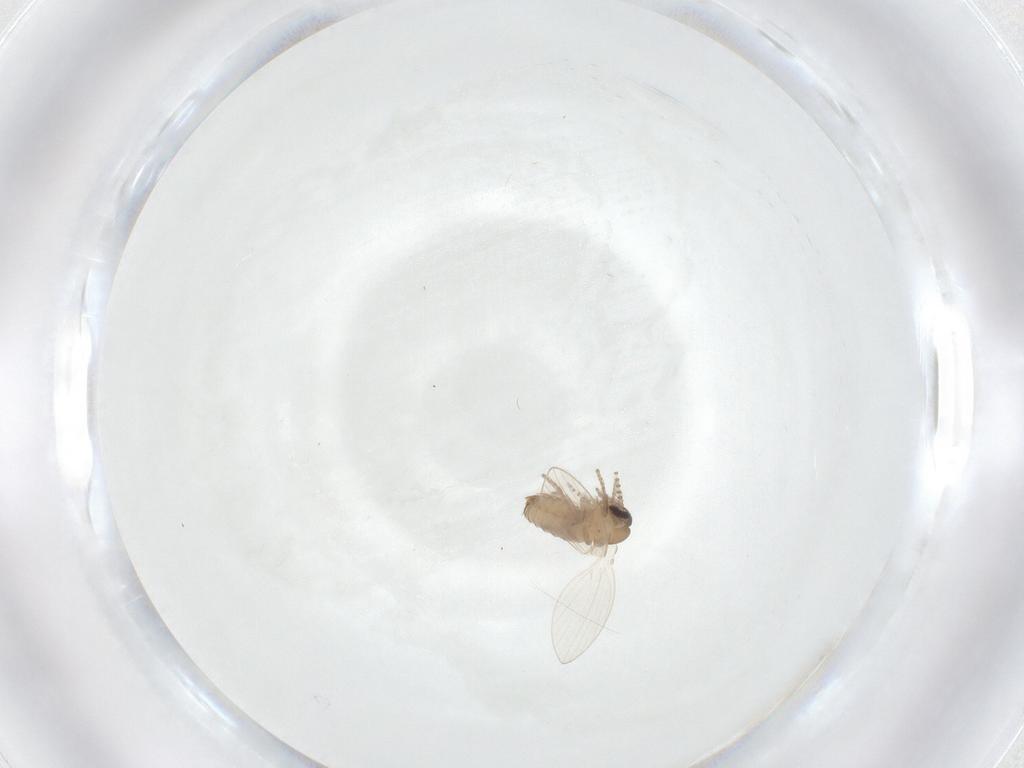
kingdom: Animalia
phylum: Arthropoda
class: Insecta
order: Diptera
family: Psychodidae
